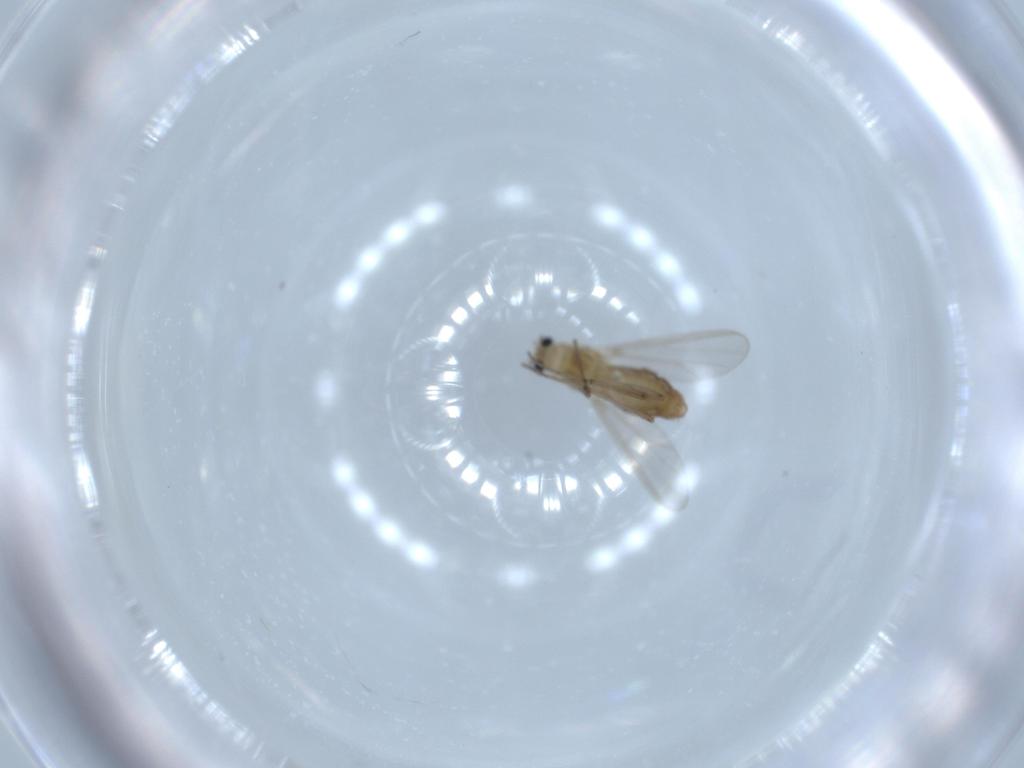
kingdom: Animalia
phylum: Arthropoda
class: Insecta
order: Diptera
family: Chironomidae
